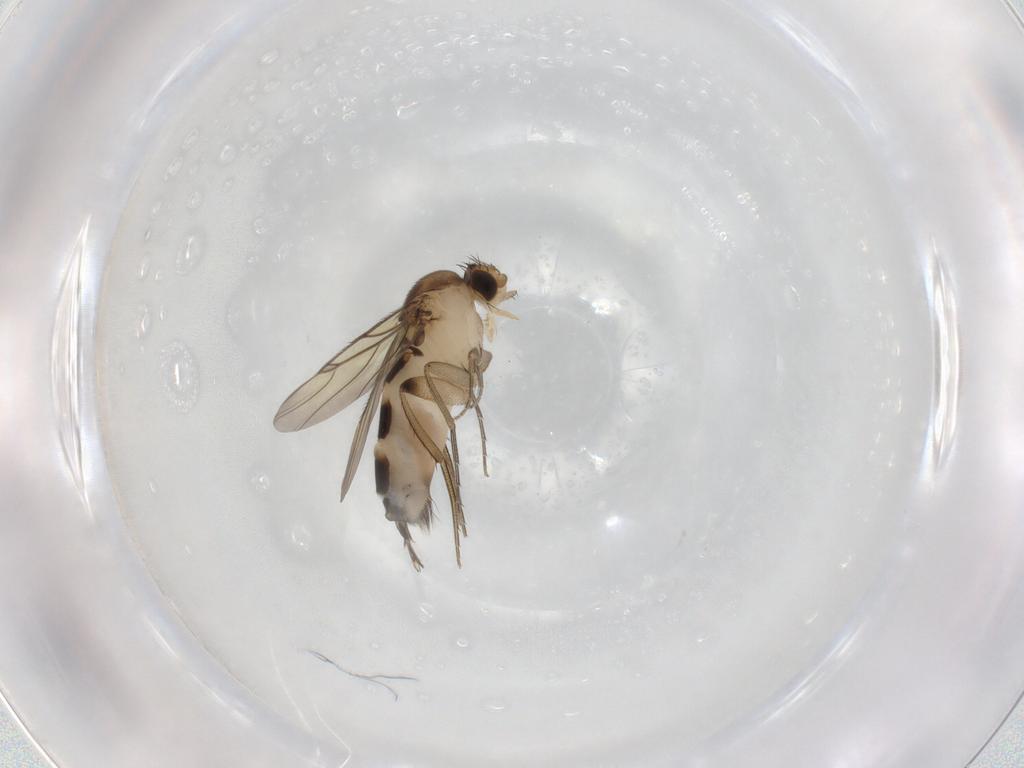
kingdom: Animalia
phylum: Arthropoda
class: Insecta
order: Diptera
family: Phoridae
